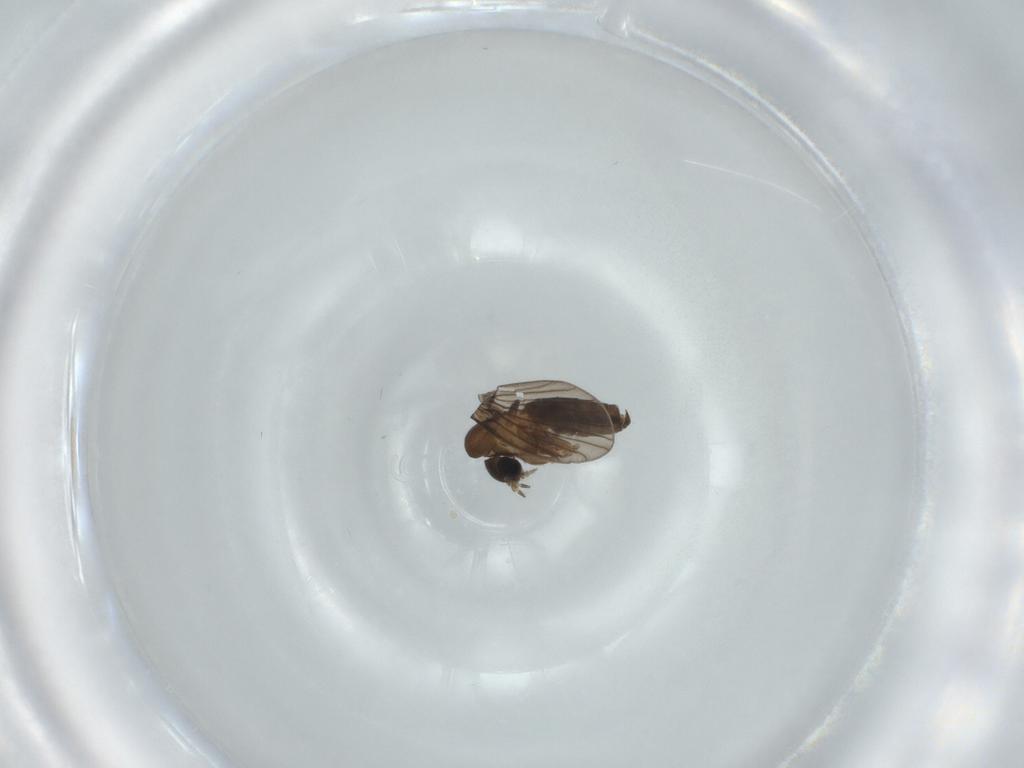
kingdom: Animalia
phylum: Arthropoda
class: Insecta
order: Diptera
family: Psychodidae
